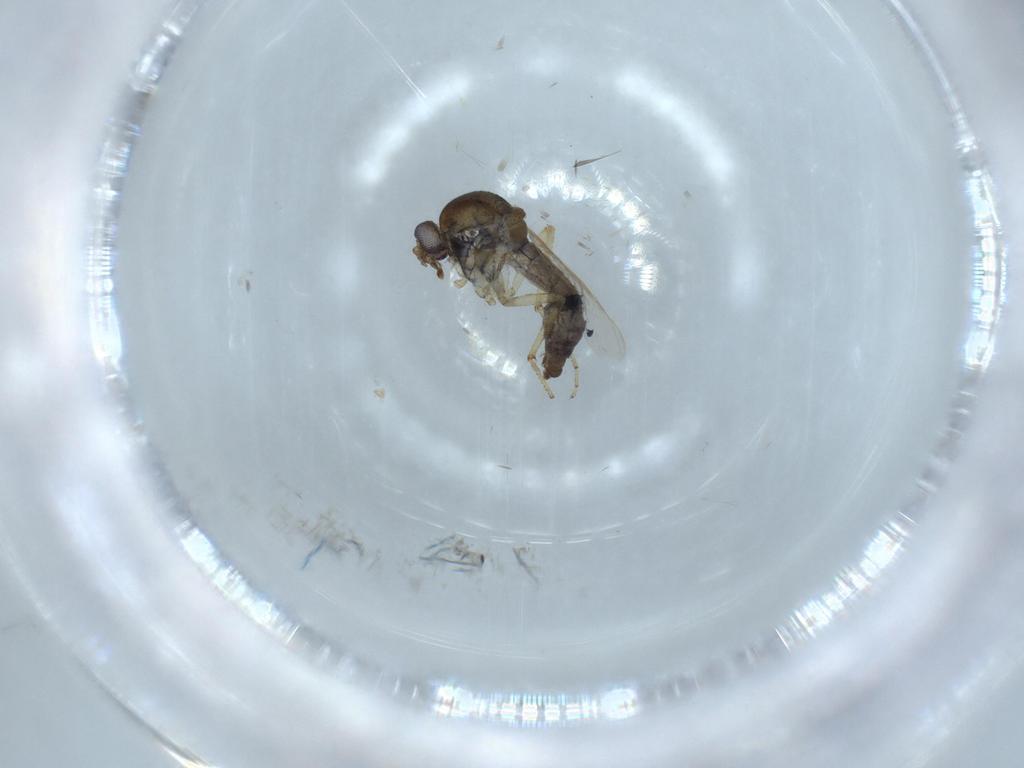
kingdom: Animalia
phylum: Arthropoda
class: Insecta
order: Diptera
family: Ceratopogonidae
